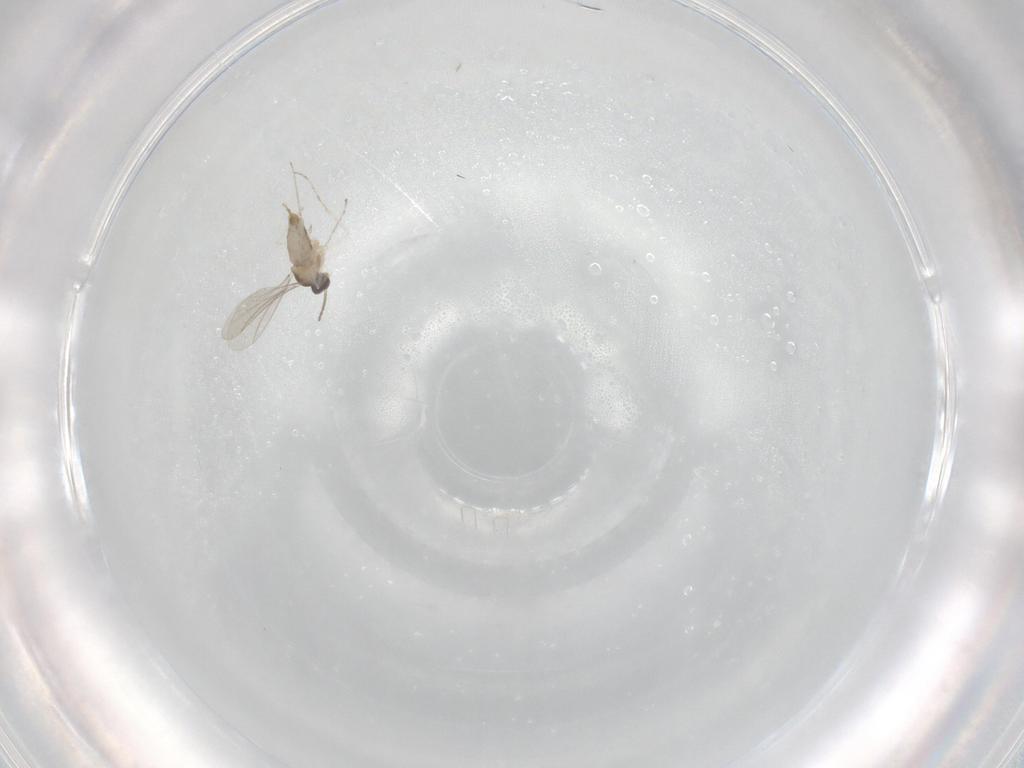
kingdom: Animalia
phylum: Arthropoda
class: Insecta
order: Diptera
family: Cecidomyiidae
